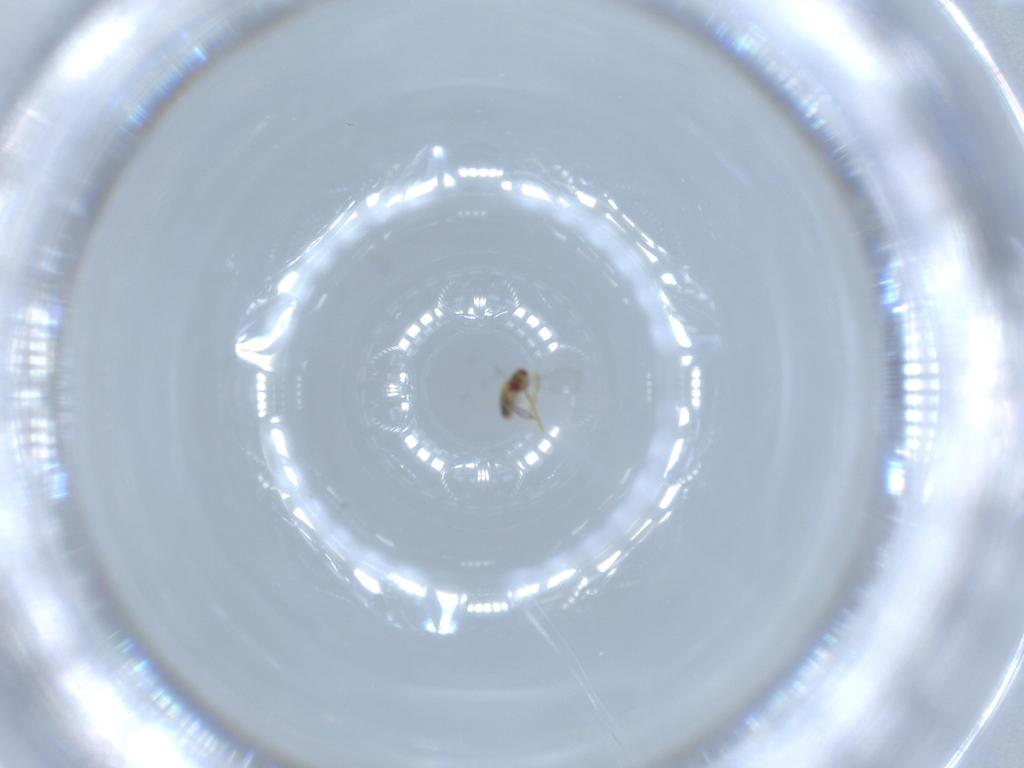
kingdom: Animalia
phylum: Arthropoda
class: Insecta
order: Hymenoptera
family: Aphelinidae
